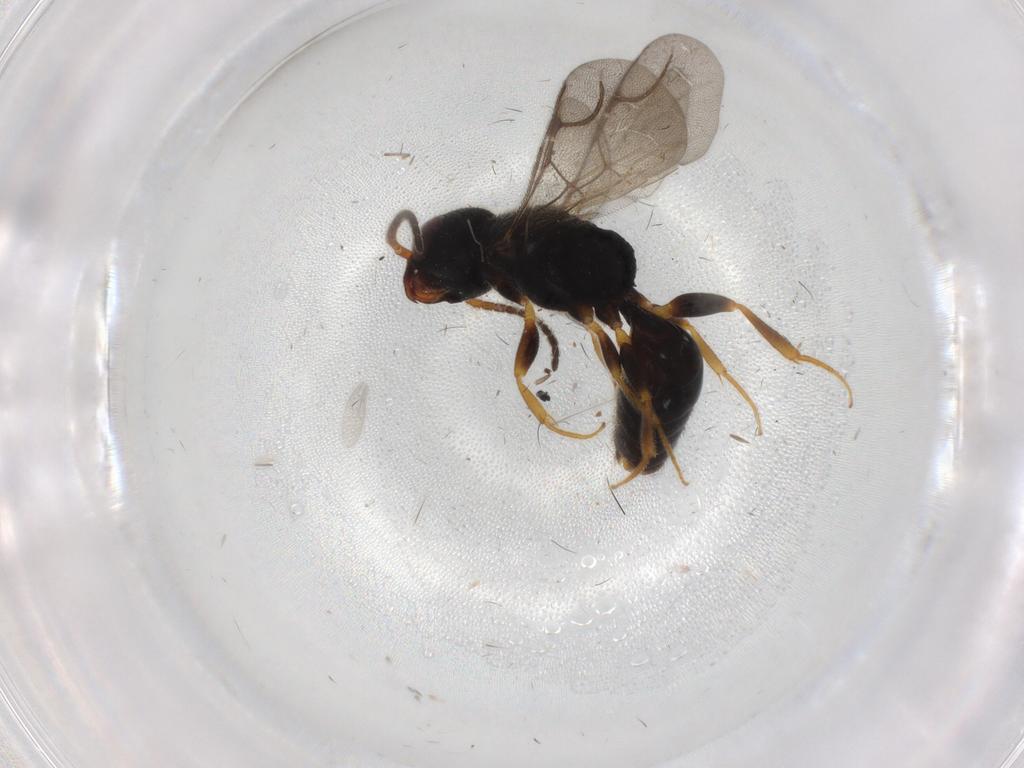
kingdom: Animalia
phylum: Arthropoda
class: Insecta
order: Hymenoptera
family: Bethylidae
